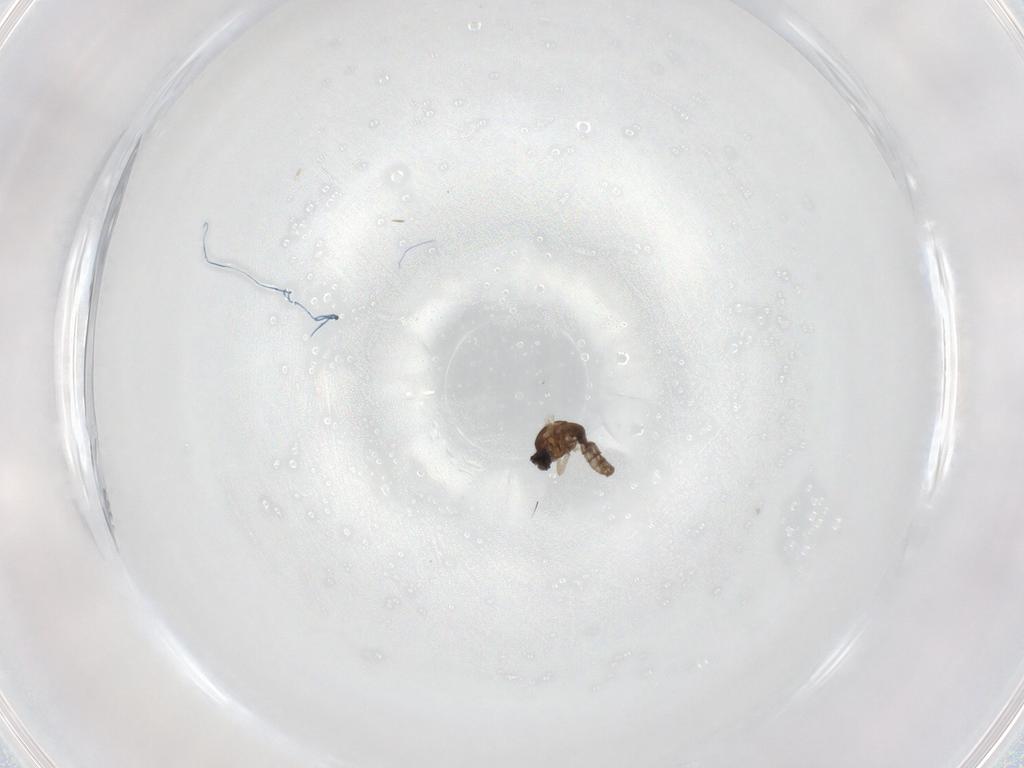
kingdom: Animalia
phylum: Arthropoda
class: Insecta
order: Diptera
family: Cecidomyiidae
